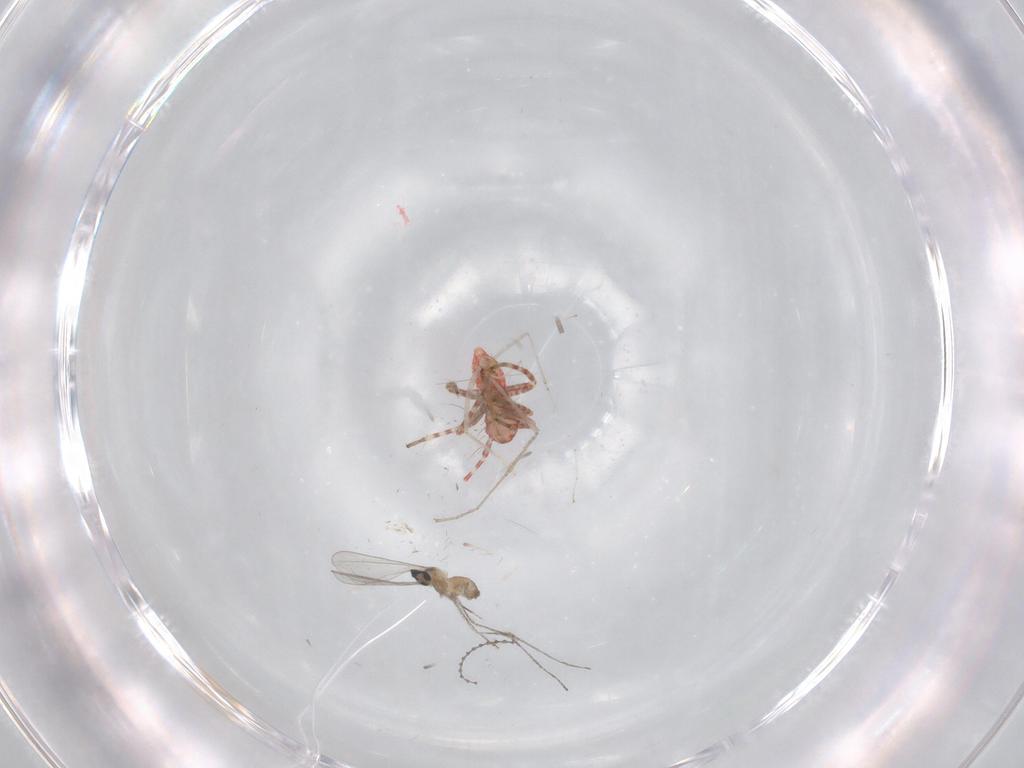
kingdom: Animalia
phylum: Arthropoda
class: Insecta
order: Hemiptera
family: Miridae
